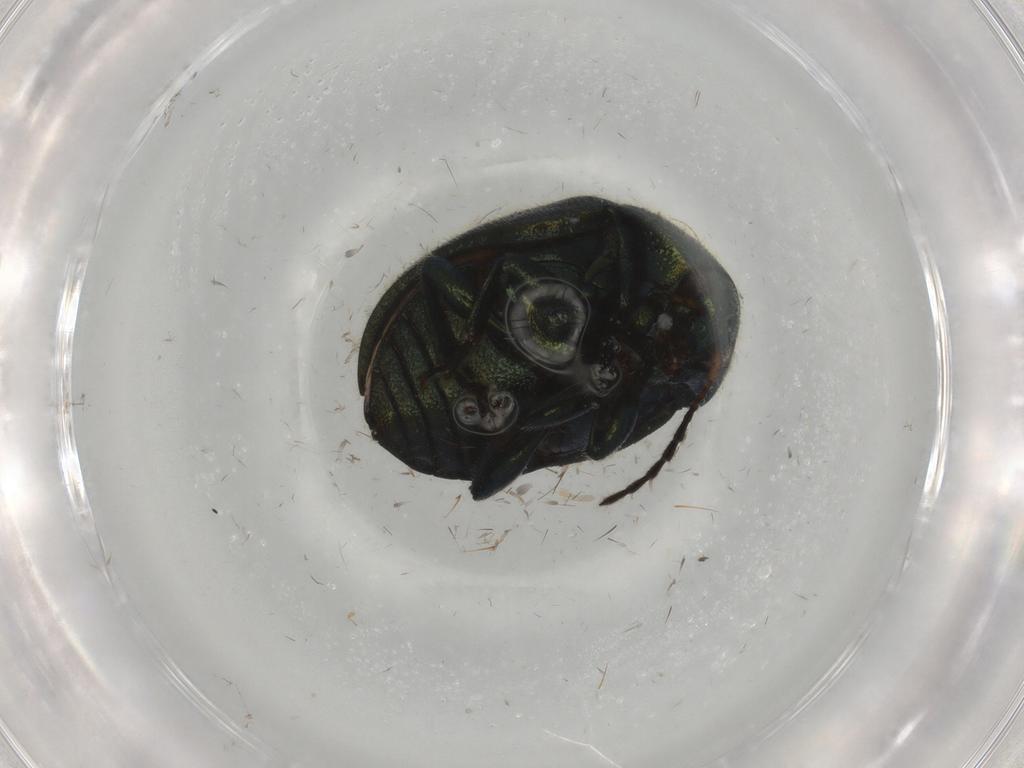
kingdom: Animalia
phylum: Arthropoda
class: Insecta
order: Coleoptera
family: Chrysomelidae
